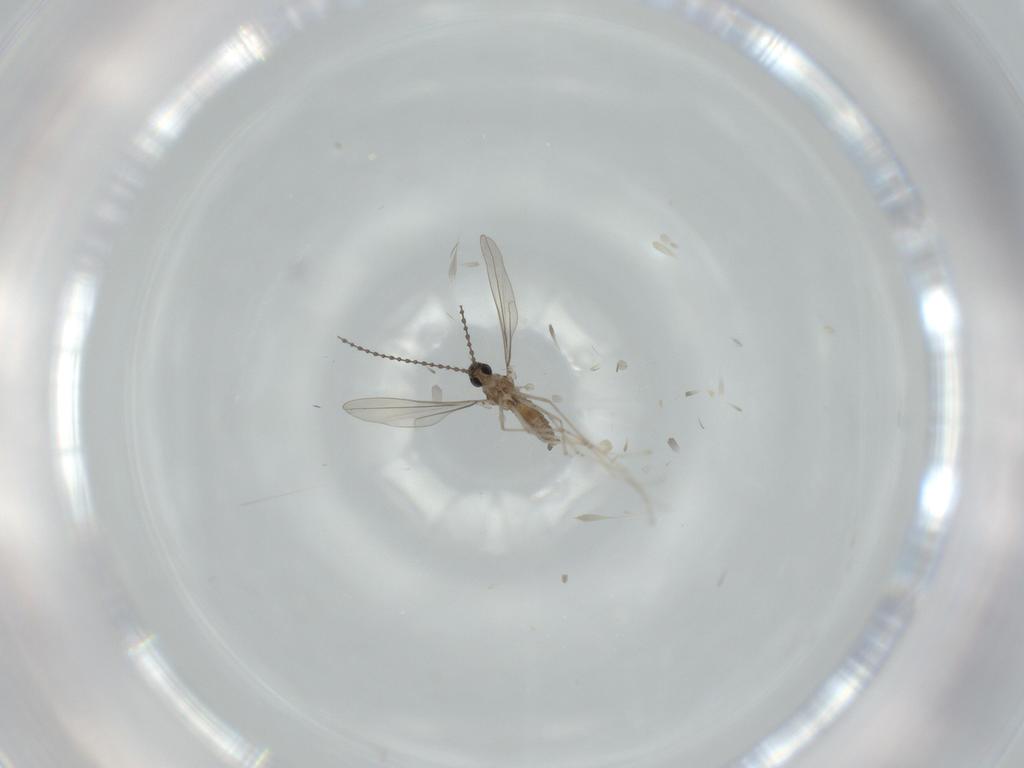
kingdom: Animalia
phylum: Arthropoda
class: Insecta
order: Diptera
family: Cecidomyiidae
